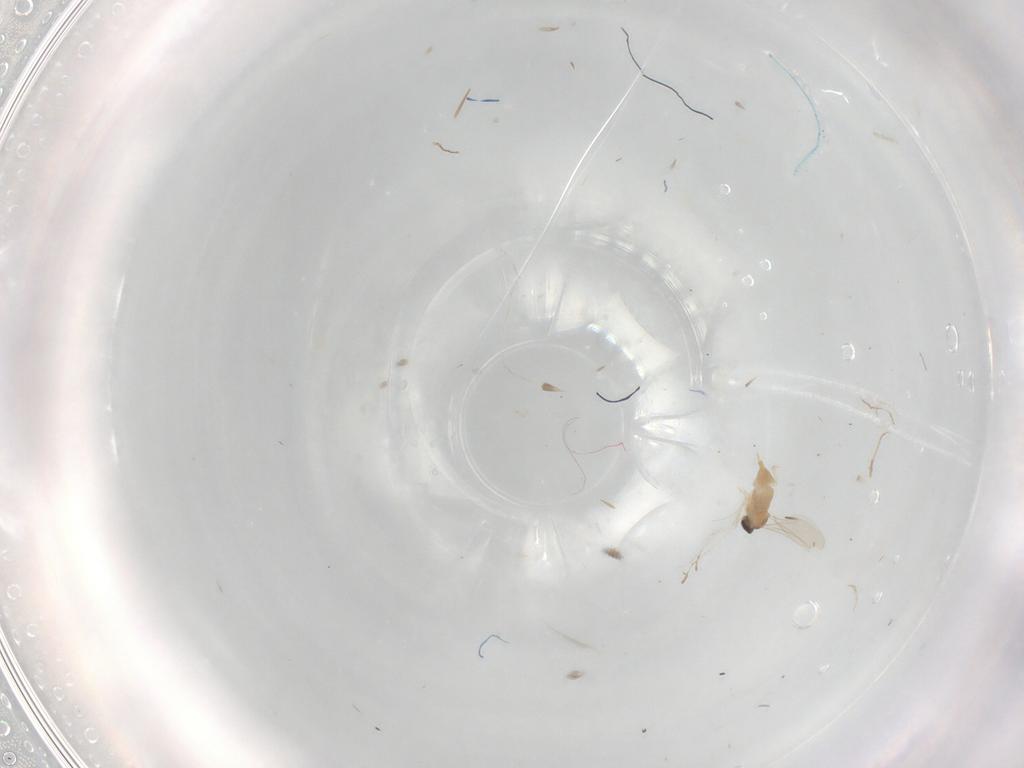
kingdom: Animalia
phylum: Arthropoda
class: Insecta
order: Diptera
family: Cecidomyiidae
